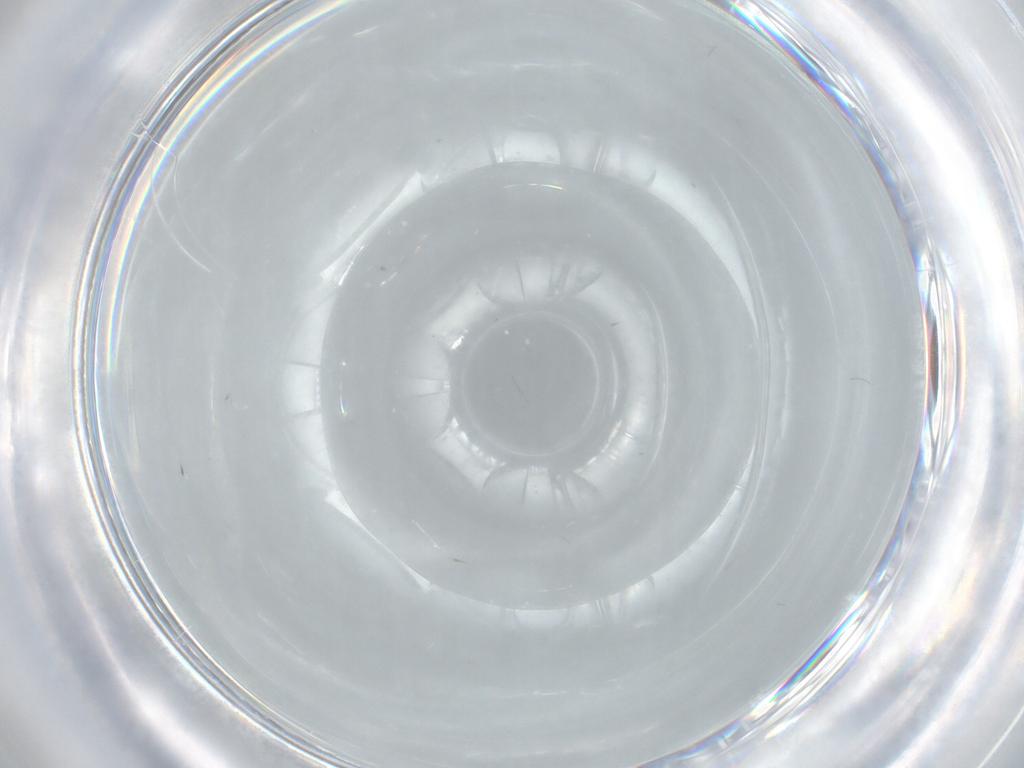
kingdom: Animalia
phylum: Arthropoda
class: Insecta
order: Diptera
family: Cecidomyiidae
